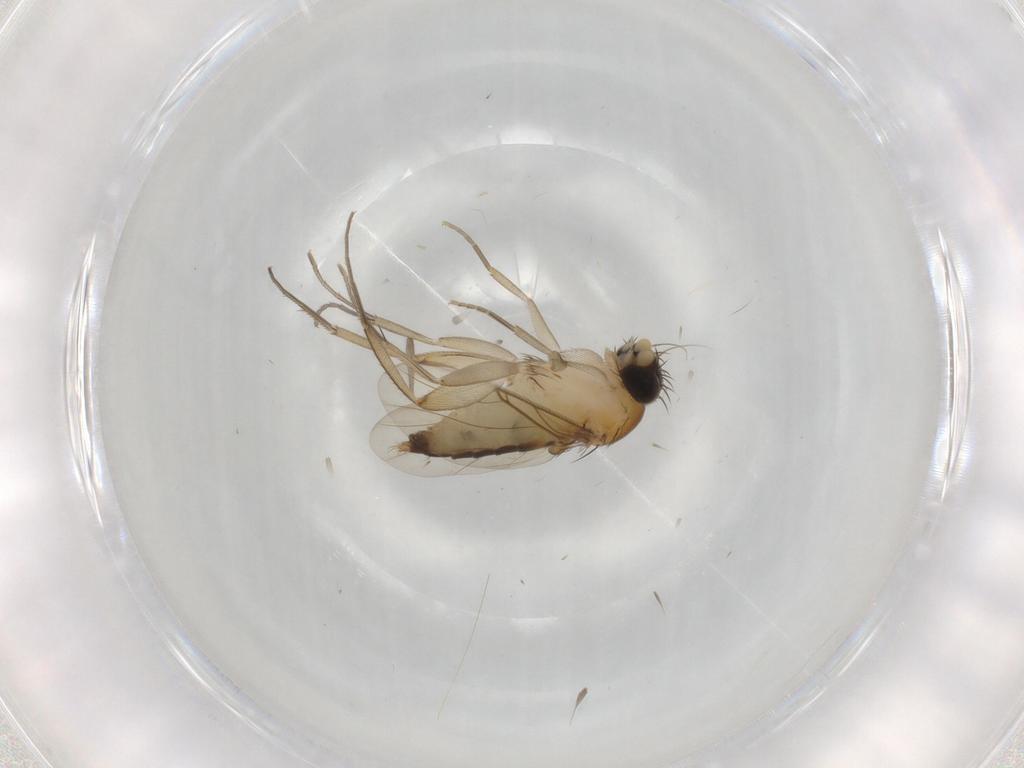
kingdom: Animalia
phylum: Arthropoda
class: Insecta
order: Diptera
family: Phoridae
